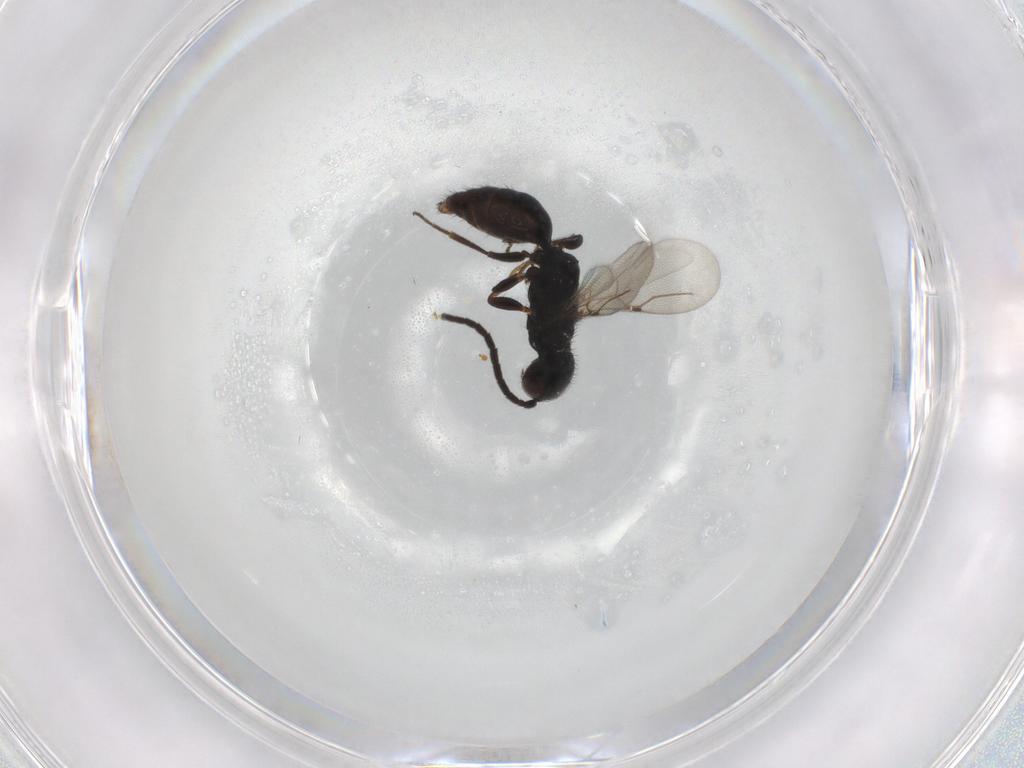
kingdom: Animalia
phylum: Arthropoda
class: Insecta
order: Hymenoptera
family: Bethylidae
